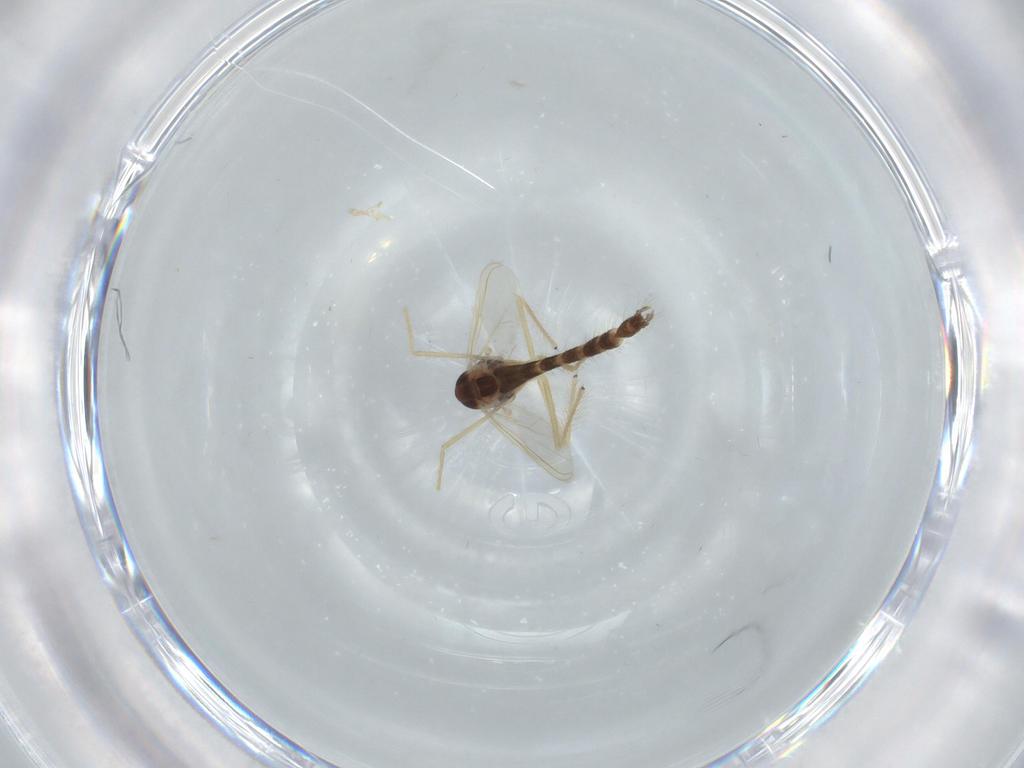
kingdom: Animalia
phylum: Arthropoda
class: Insecta
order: Diptera
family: Chironomidae
